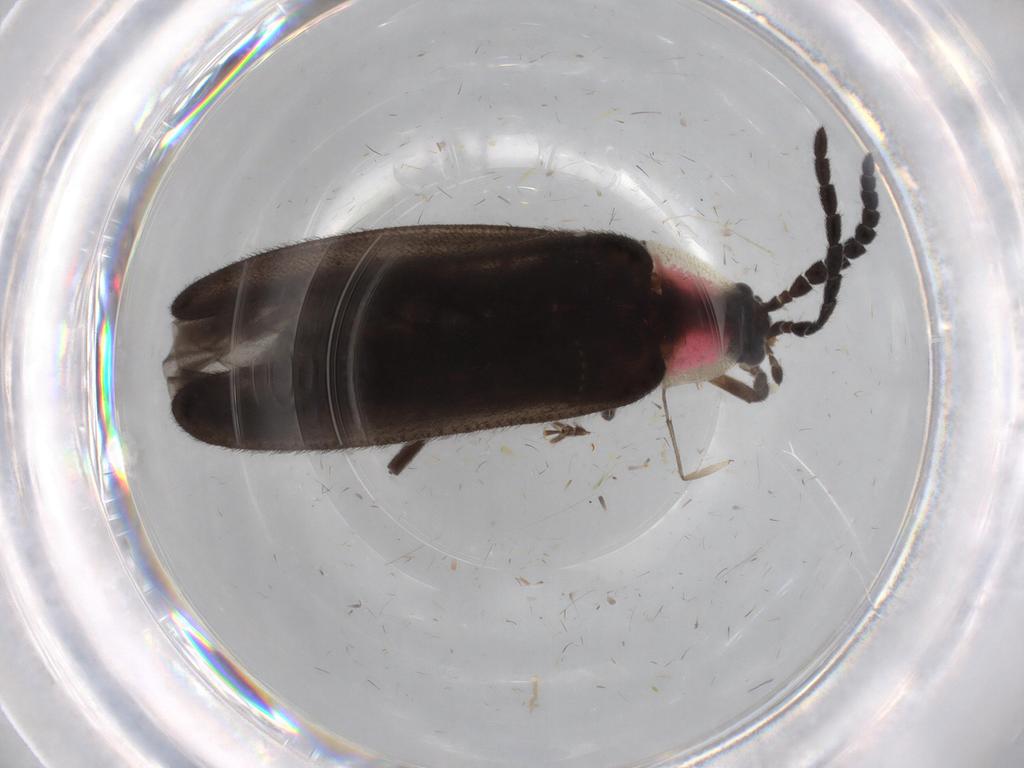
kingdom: Animalia
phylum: Arthropoda
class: Insecta
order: Coleoptera
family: Lampyridae
